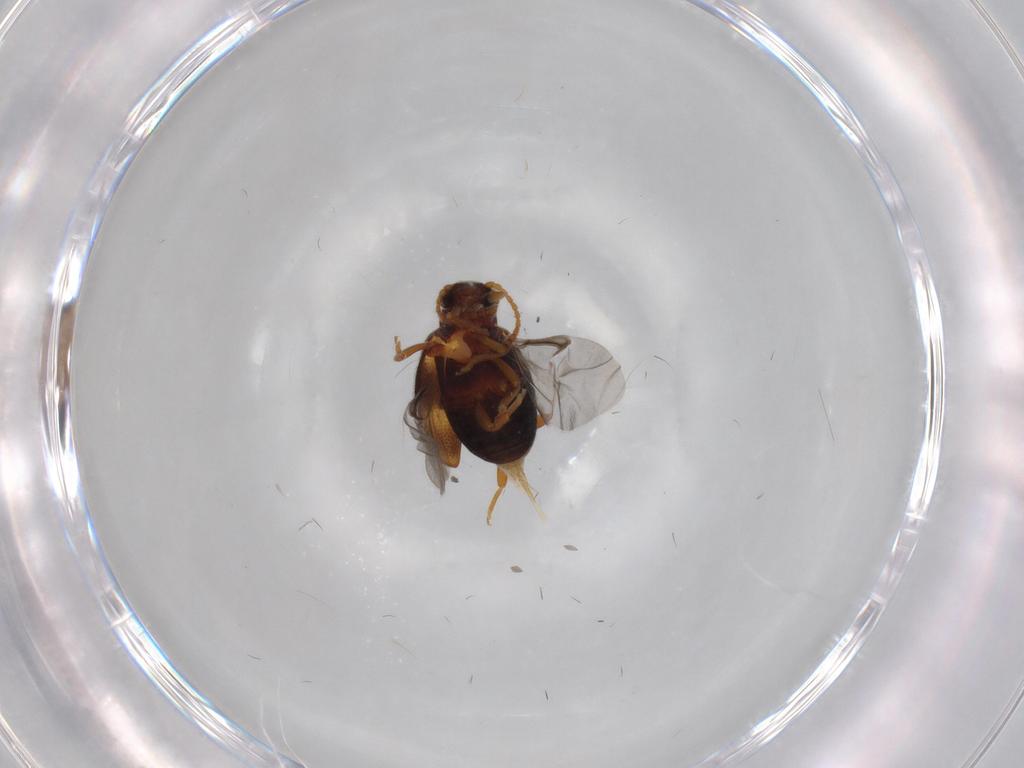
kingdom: Animalia
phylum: Arthropoda
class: Insecta
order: Coleoptera
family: Aderidae
